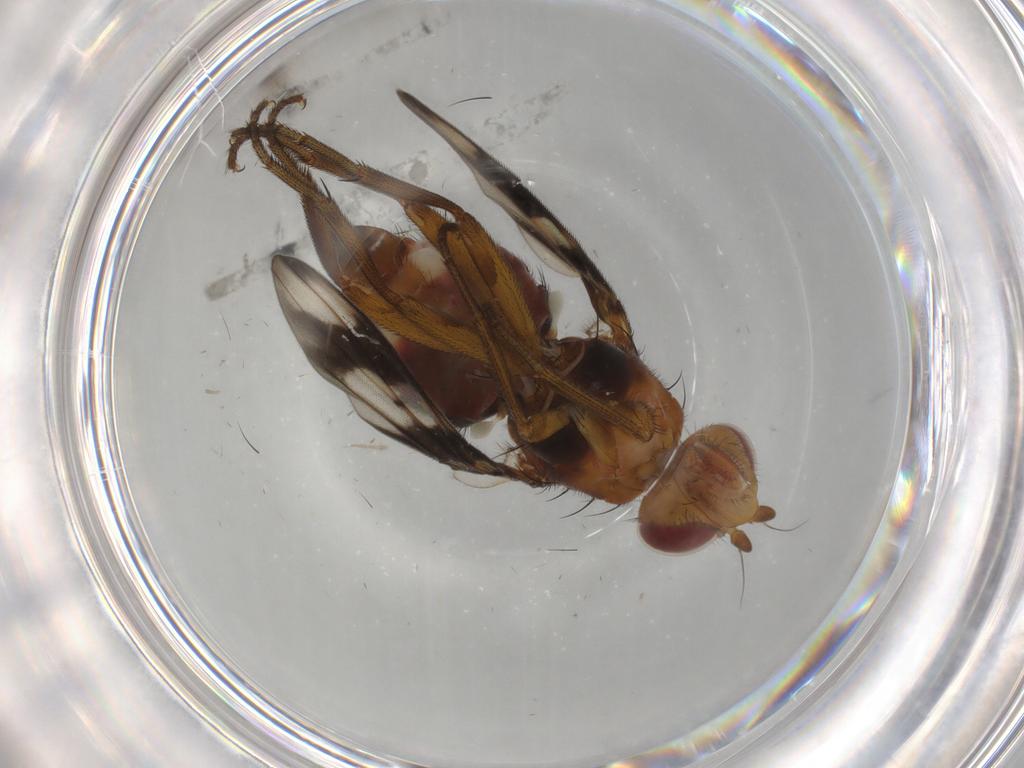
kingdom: Animalia
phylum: Arthropoda
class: Insecta
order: Diptera
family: Richardiidae
